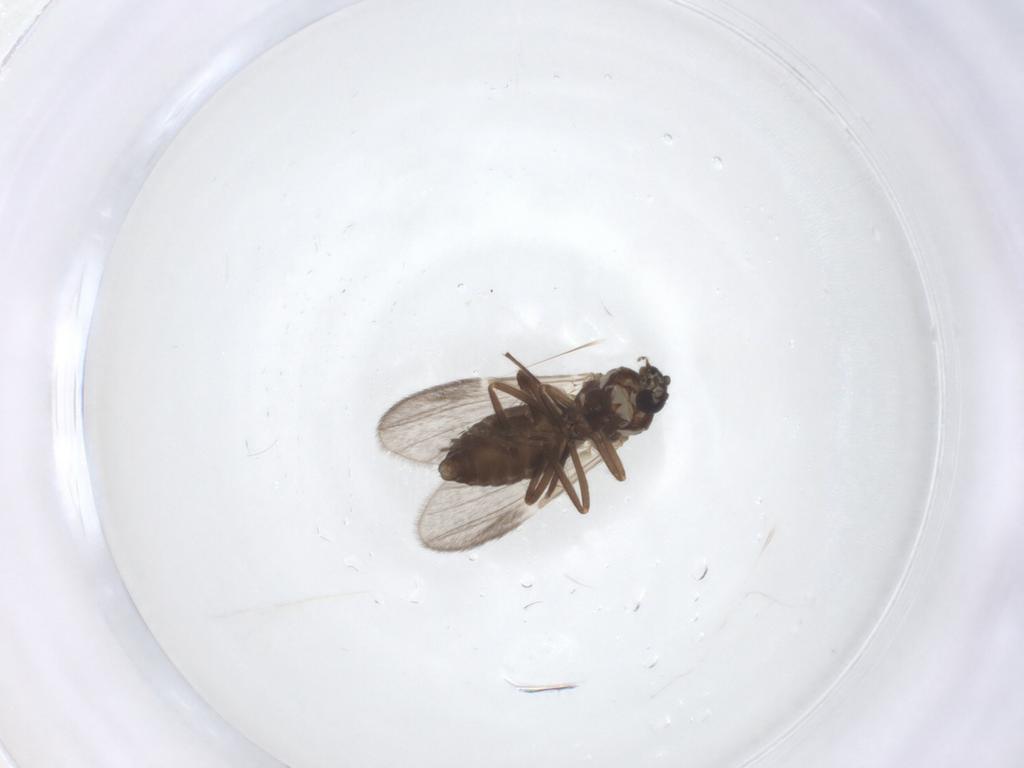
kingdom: Animalia
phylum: Arthropoda
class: Insecta
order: Diptera
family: Ceratopogonidae
